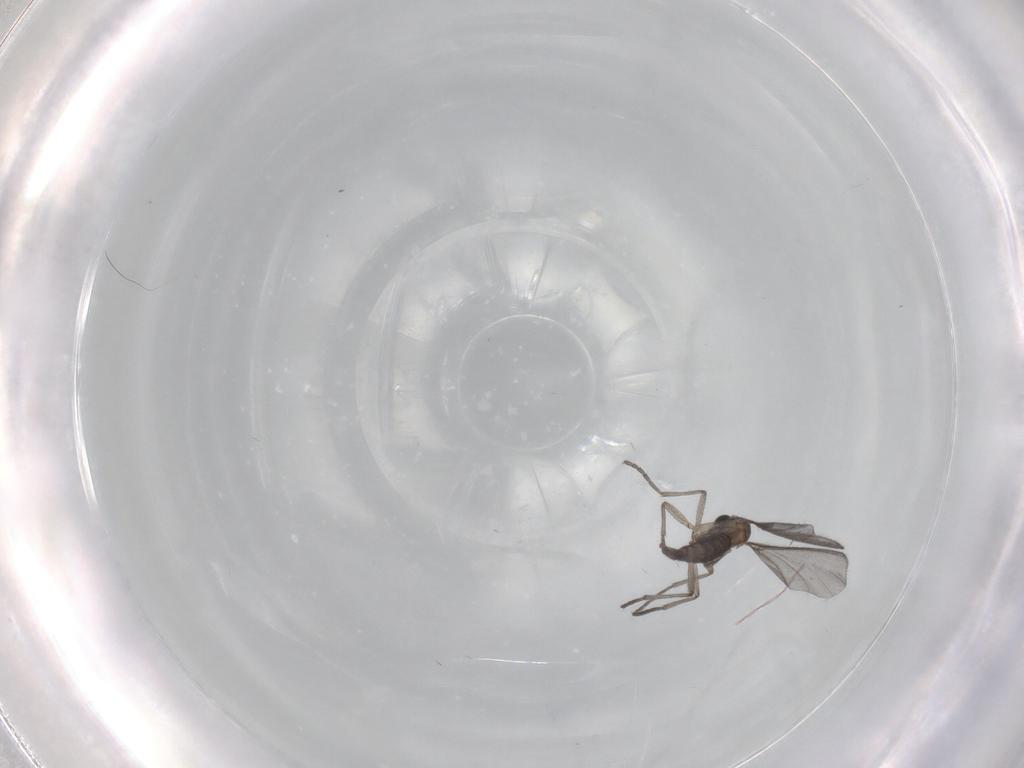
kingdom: Animalia
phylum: Arthropoda
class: Insecta
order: Diptera
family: Sciaridae
